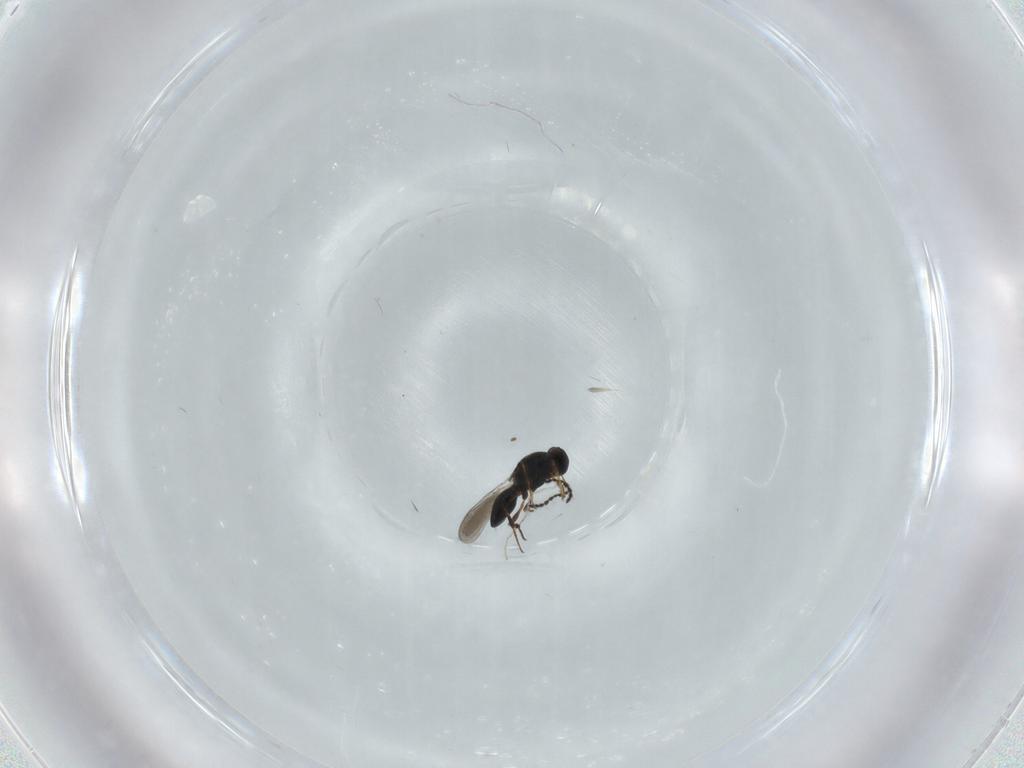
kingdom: Animalia
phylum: Arthropoda
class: Insecta
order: Hymenoptera
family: Platygastridae
